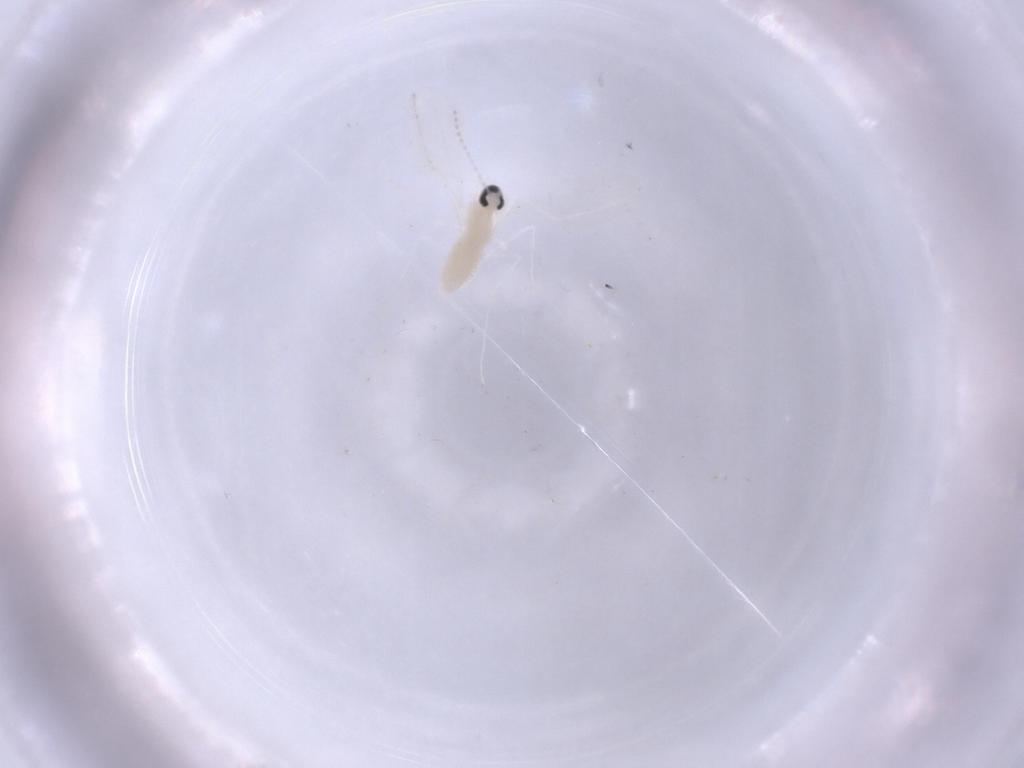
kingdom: Animalia
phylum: Arthropoda
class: Insecta
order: Diptera
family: Cecidomyiidae
